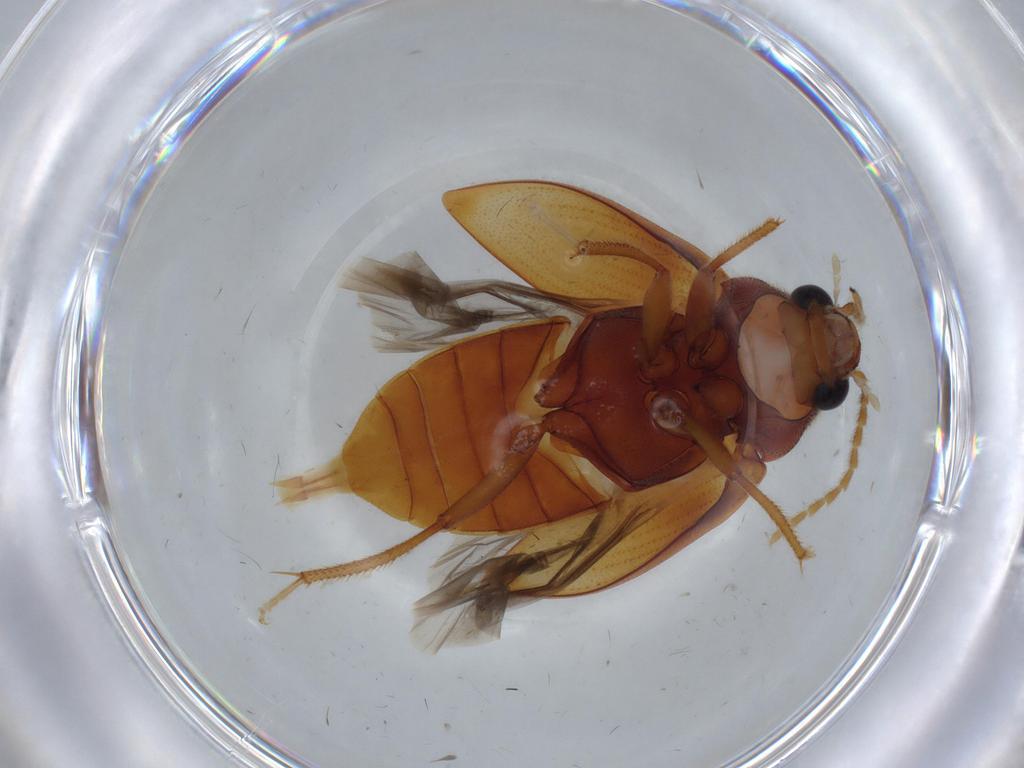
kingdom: Animalia
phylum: Arthropoda
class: Insecta
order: Coleoptera
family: Ptilodactylidae
